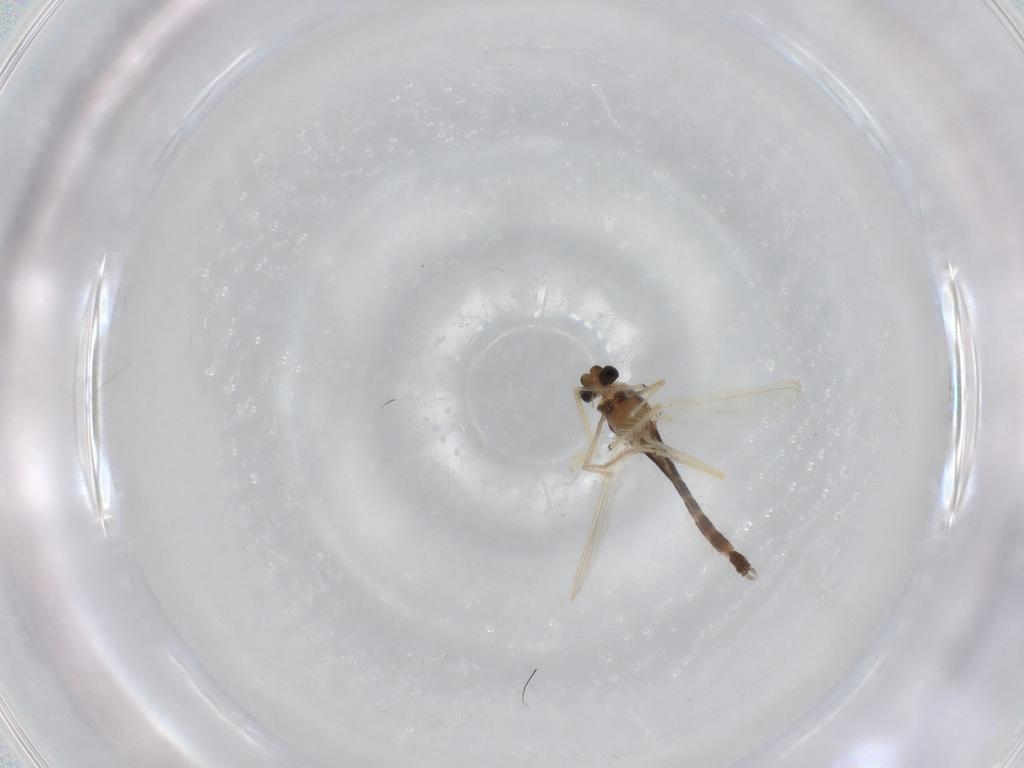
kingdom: Animalia
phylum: Arthropoda
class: Insecta
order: Diptera
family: Chironomidae
